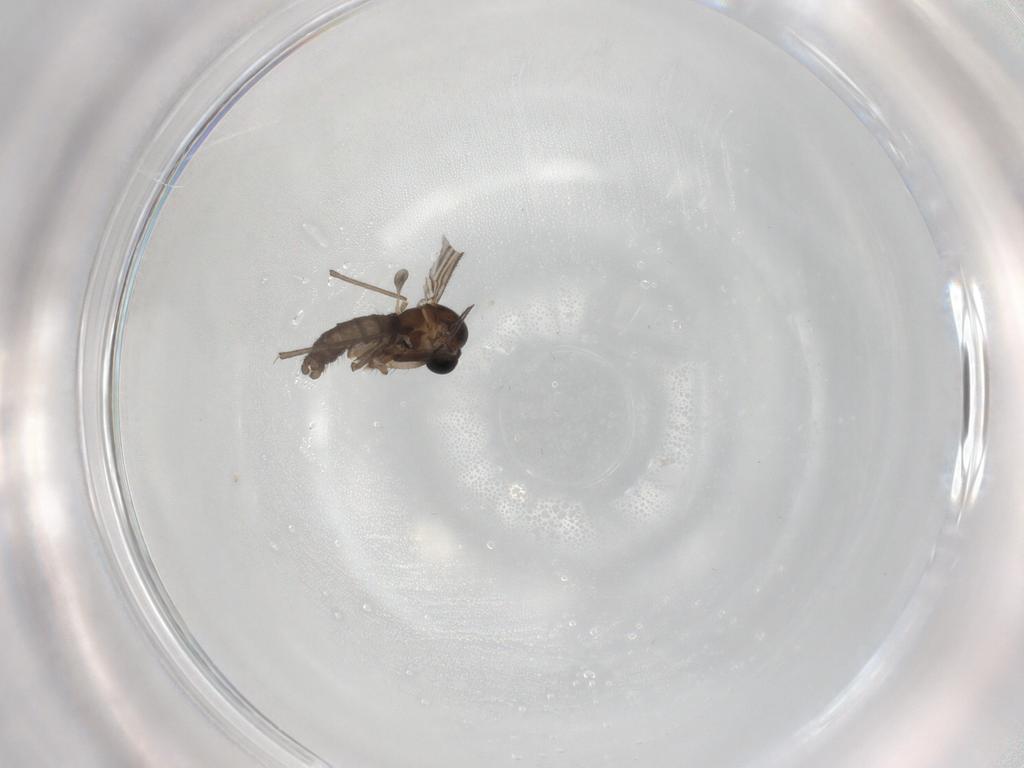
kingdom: Animalia
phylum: Arthropoda
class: Insecta
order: Diptera
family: Sciaridae
